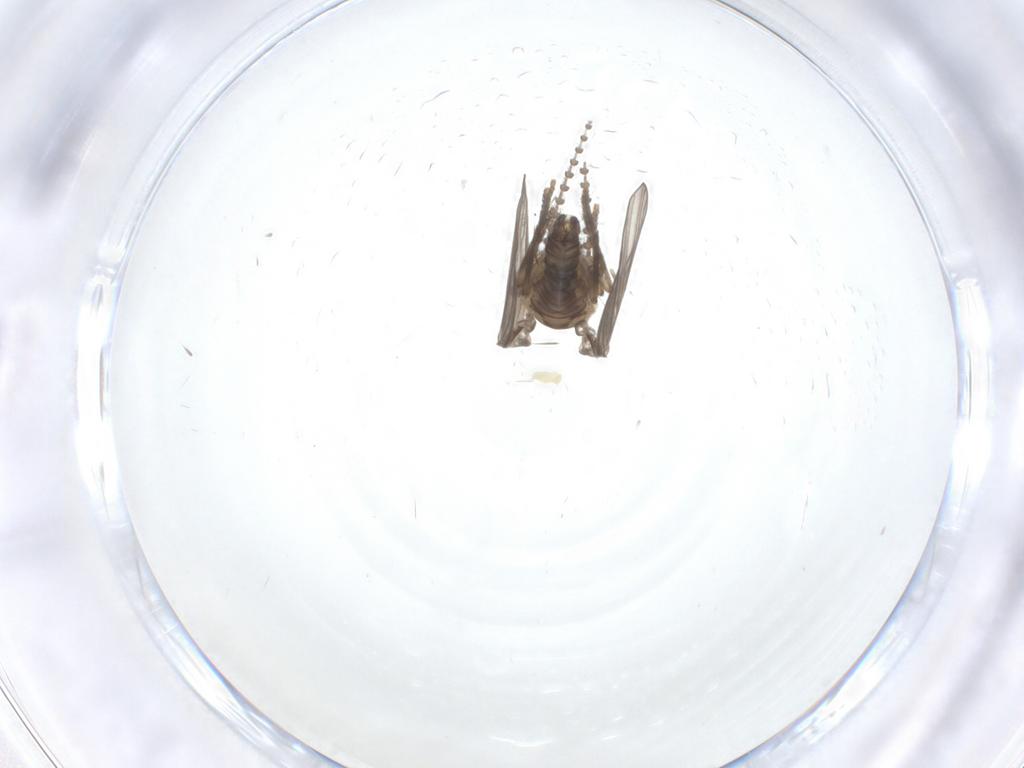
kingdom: Animalia
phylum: Arthropoda
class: Insecta
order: Diptera
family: Psychodidae
